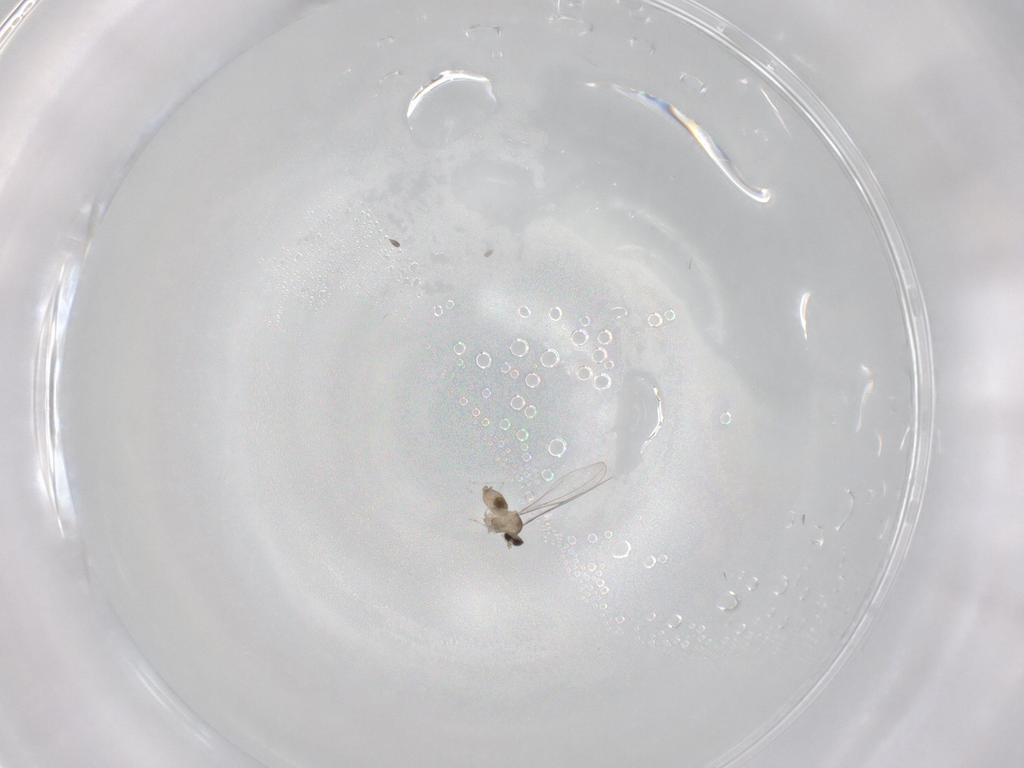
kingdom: Animalia
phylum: Arthropoda
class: Insecta
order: Diptera
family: Cecidomyiidae
